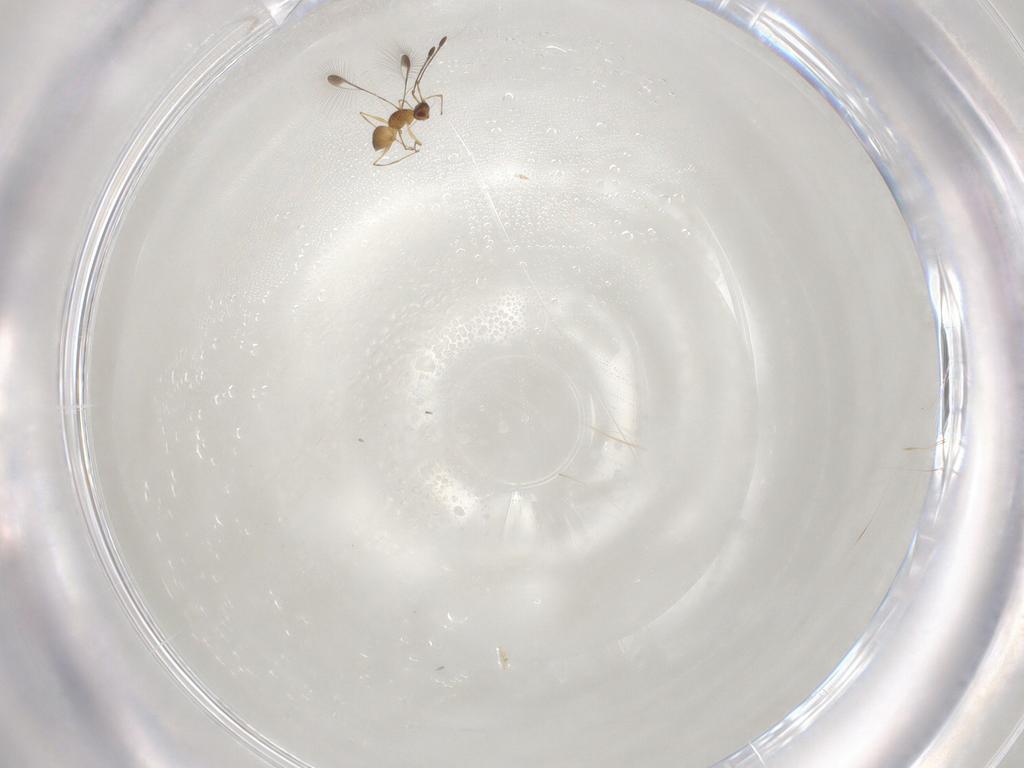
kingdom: Animalia
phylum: Arthropoda
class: Insecta
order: Hymenoptera
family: Mymaridae
